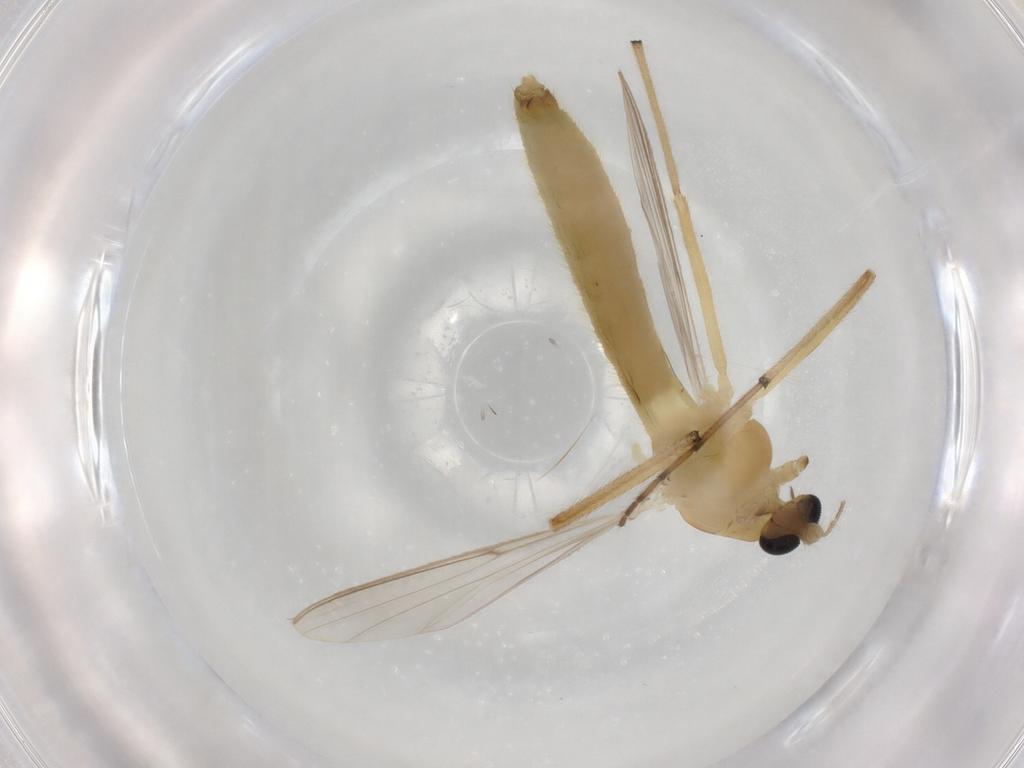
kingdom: Animalia
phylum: Arthropoda
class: Insecta
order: Diptera
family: Chironomidae
